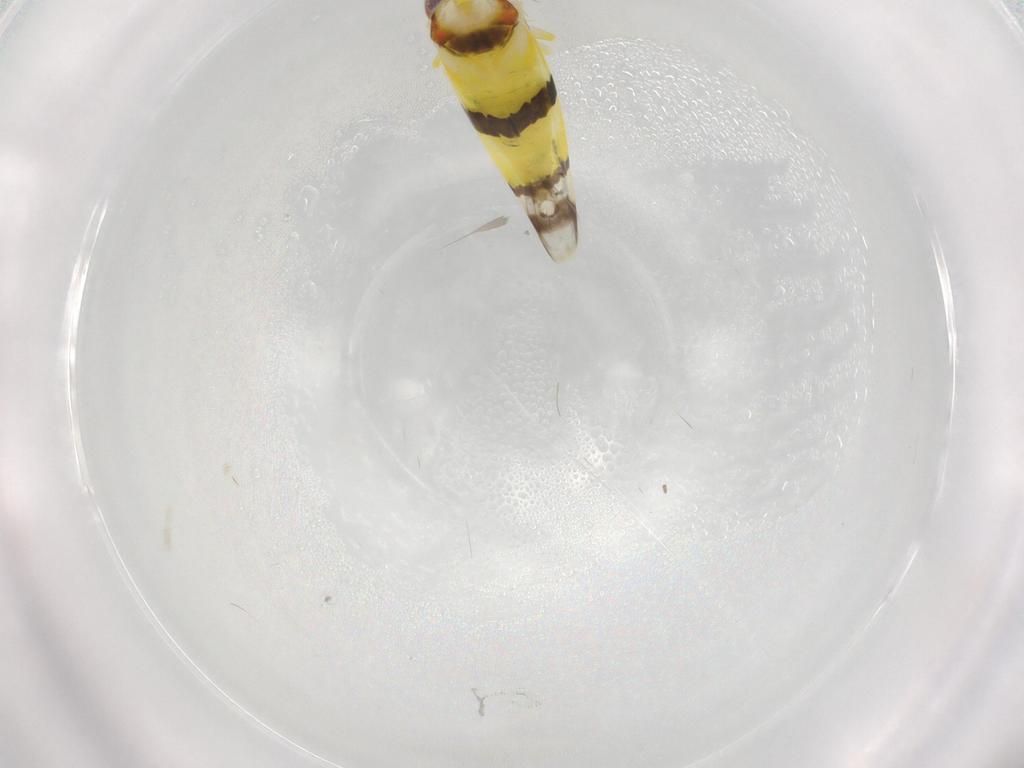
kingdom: Animalia
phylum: Arthropoda
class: Insecta
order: Hemiptera
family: Cicadellidae
